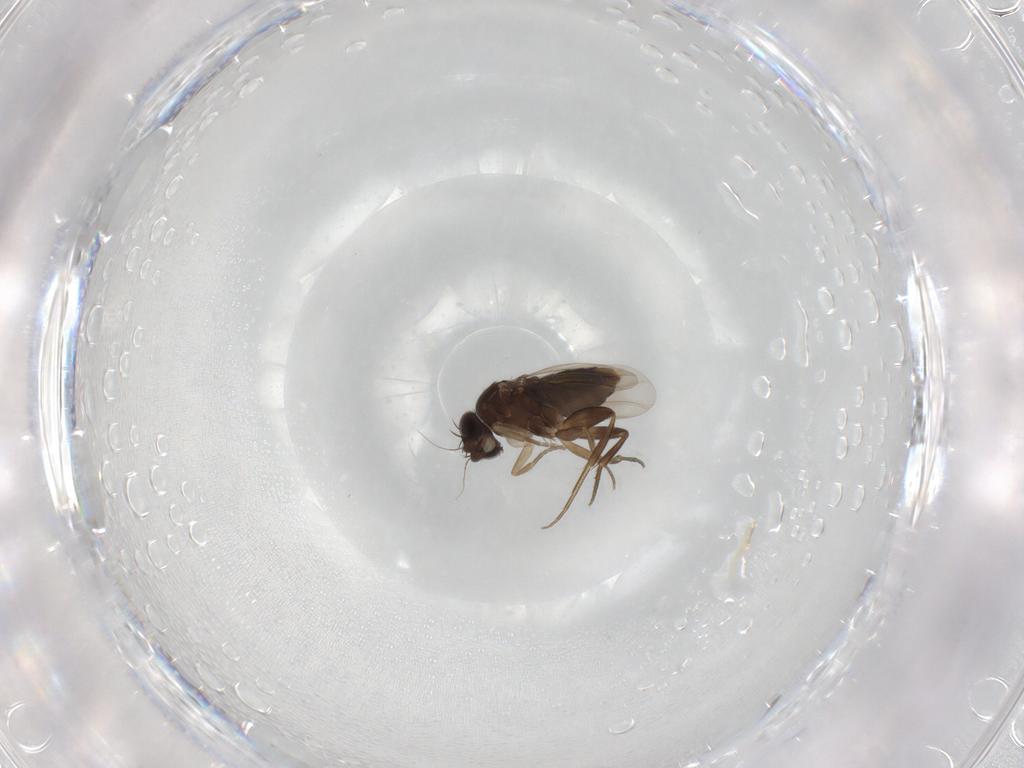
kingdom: Animalia
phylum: Arthropoda
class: Insecta
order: Diptera
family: Phoridae
